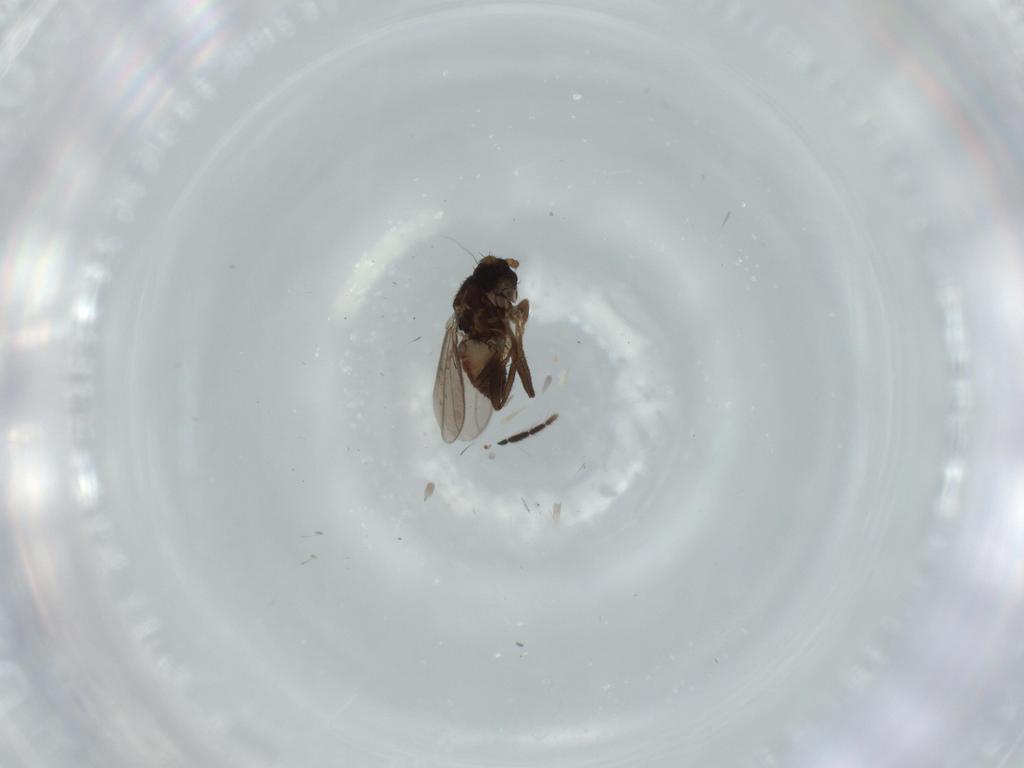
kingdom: Animalia
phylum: Arthropoda
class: Insecta
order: Diptera
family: Sphaeroceridae
